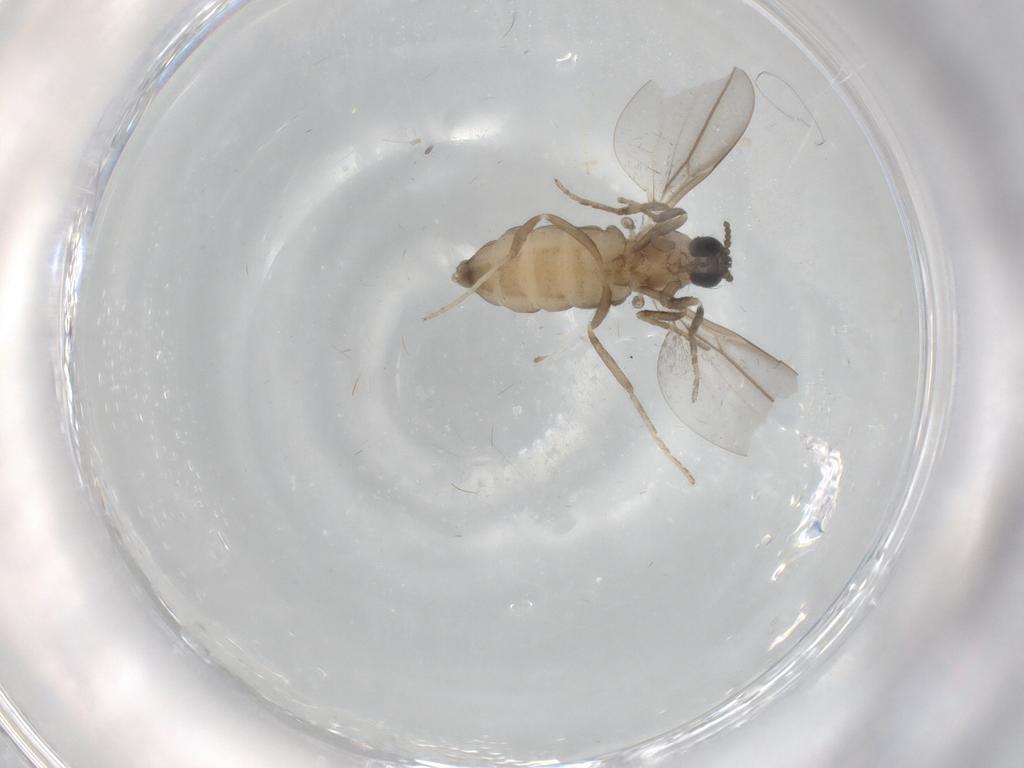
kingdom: Animalia
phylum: Arthropoda
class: Insecta
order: Diptera
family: Cecidomyiidae
